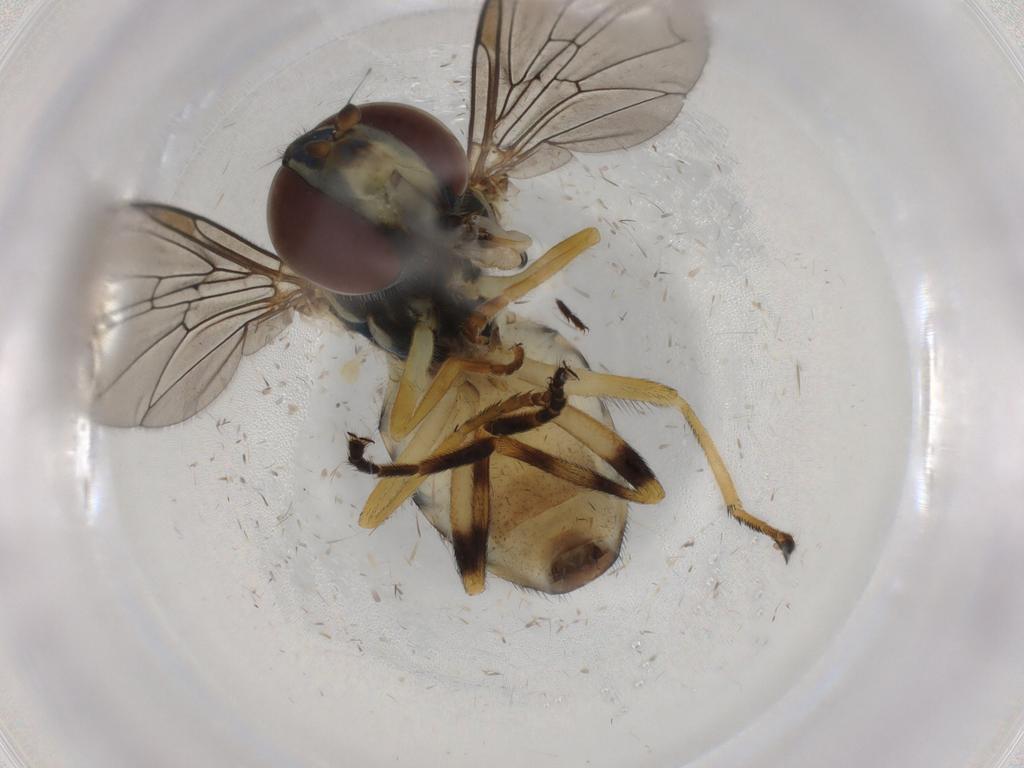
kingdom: Animalia
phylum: Arthropoda
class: Insecta
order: Diptera
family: Syrphidae
